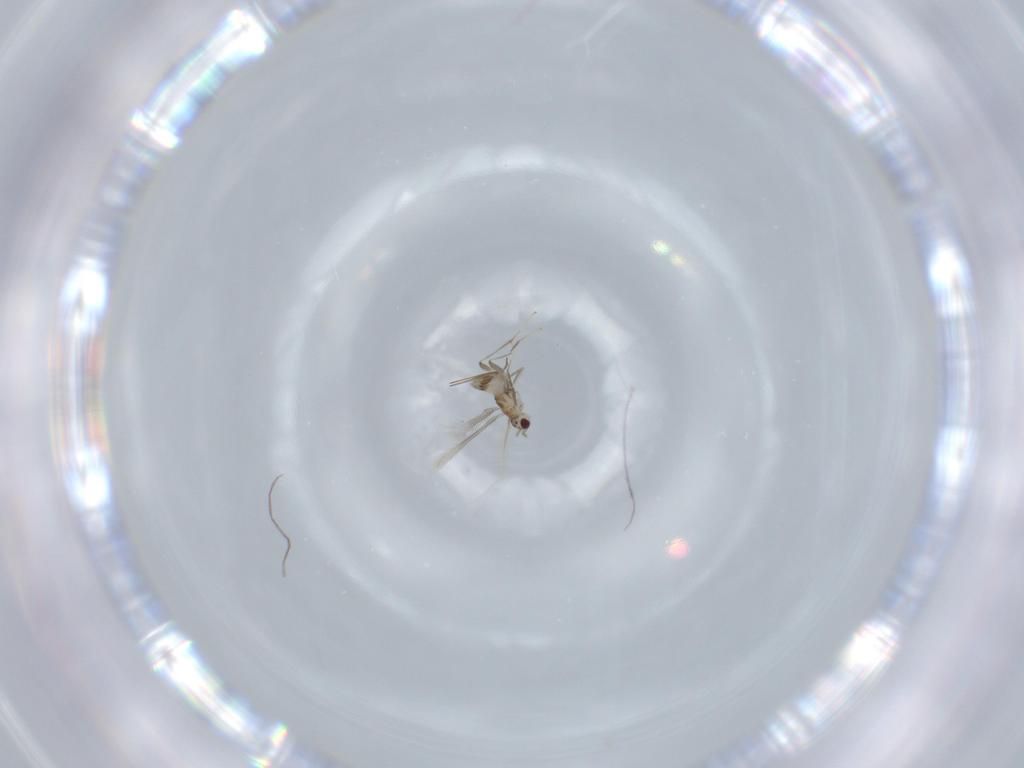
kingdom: Animalia
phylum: Arthropoda
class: Insecta
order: Hymenoptera
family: Mymaridae
